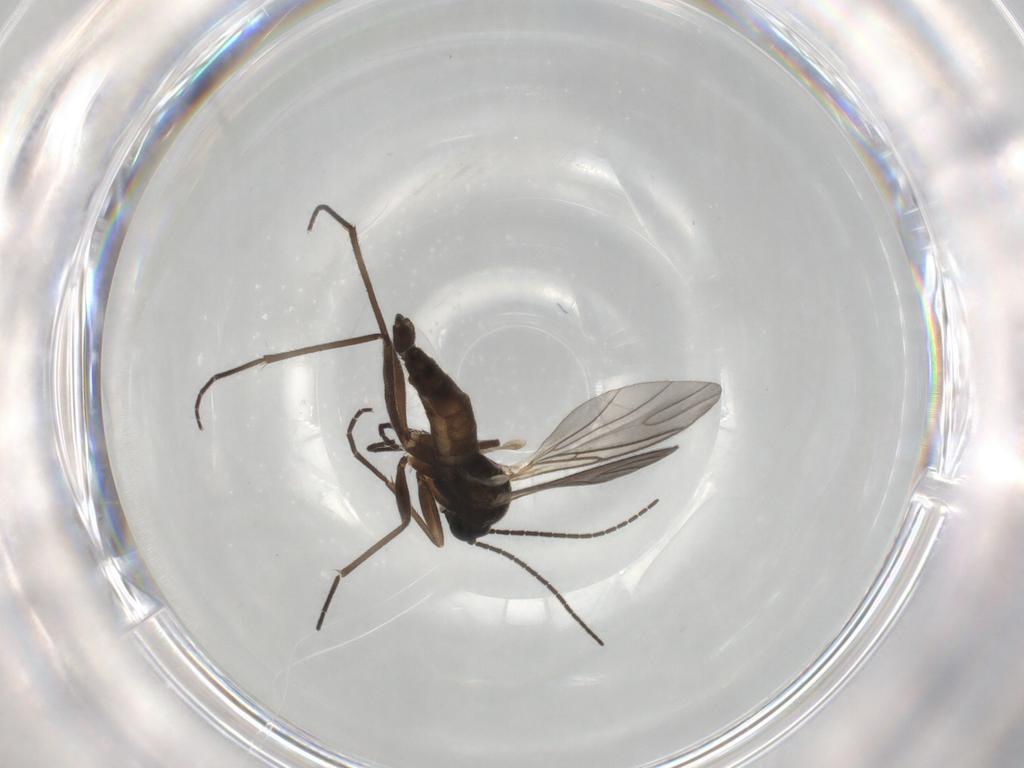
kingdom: Animalia
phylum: Arthropoda
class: Insecta
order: Diptera
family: Sciaridae
